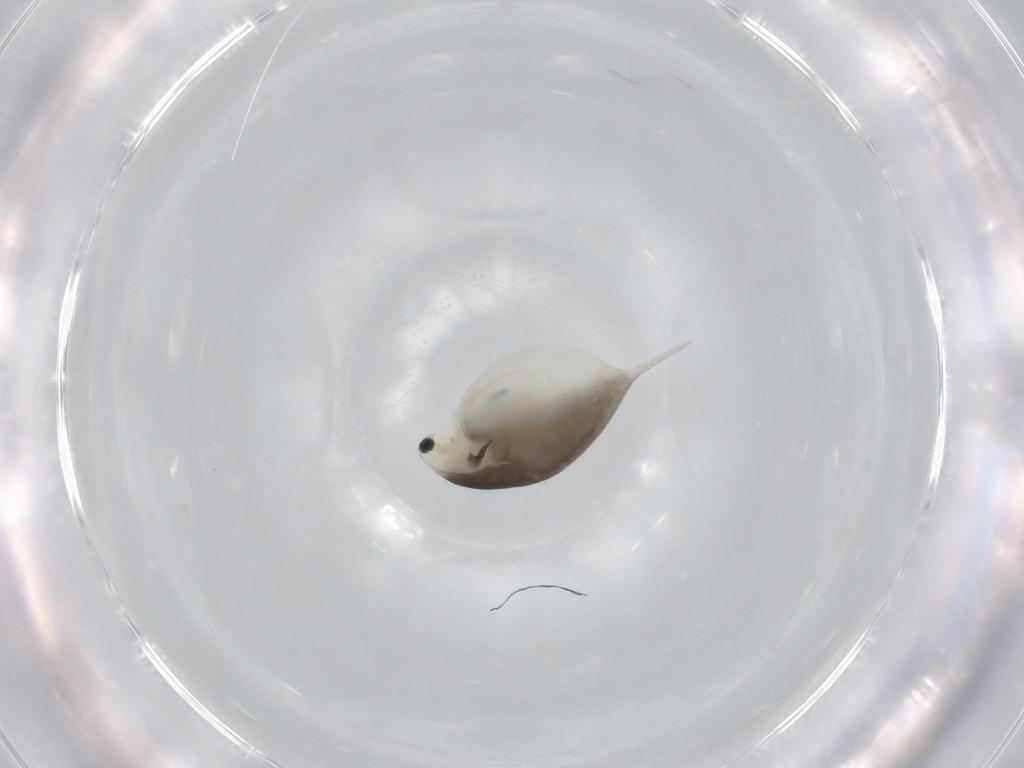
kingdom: Animalia
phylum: Arthropoda
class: Branchiopoda
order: Diplostraca
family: Daphniidae
